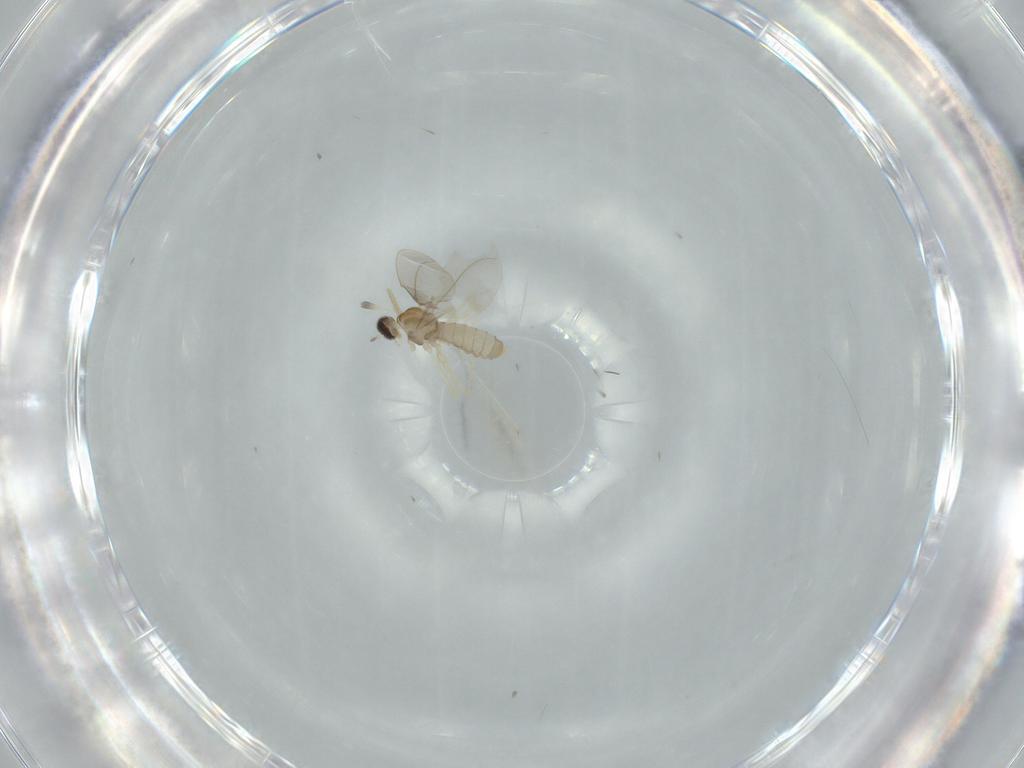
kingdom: Animalia
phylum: Arthropoda
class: Insecta
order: Diptera
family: Cecidomyiidae
